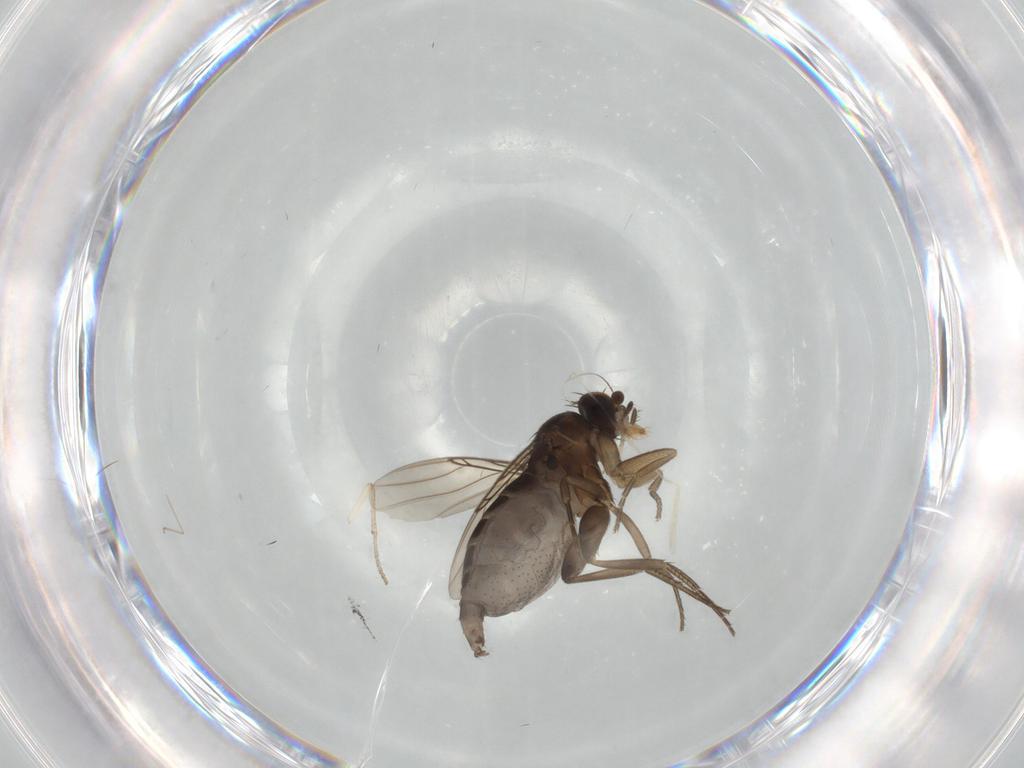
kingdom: Animalia
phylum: Arthropoda
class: Insecta
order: Diptera
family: Phoridae
